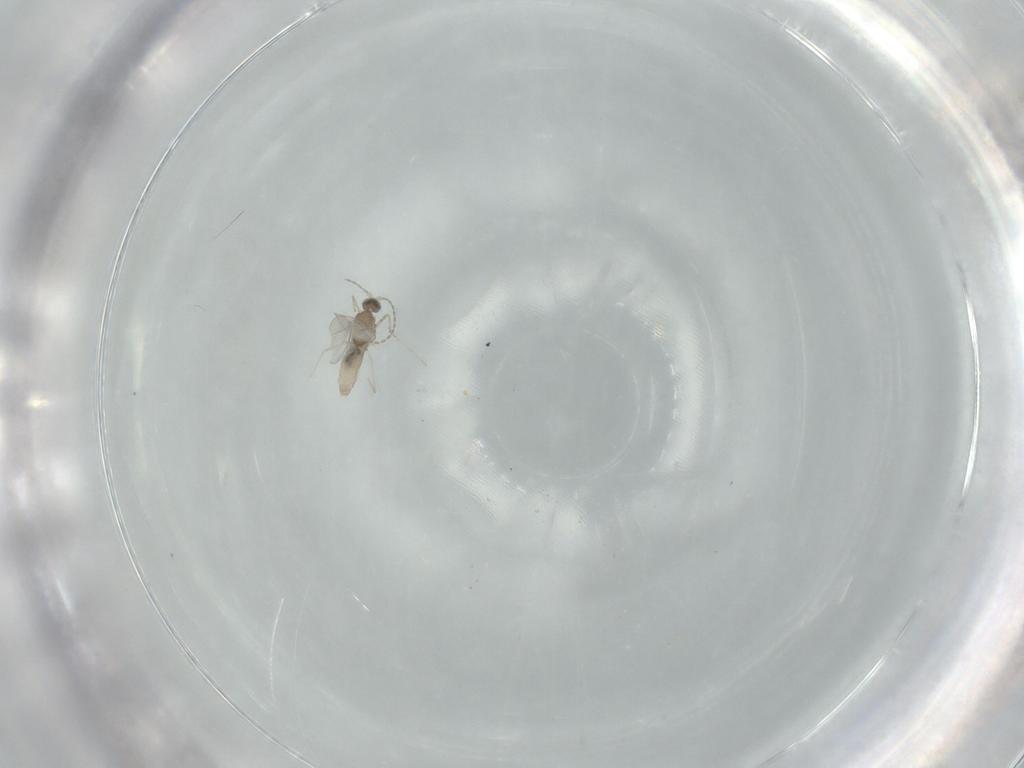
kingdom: Animalia
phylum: Arthropoda
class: Insecta
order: Diptera
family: Cecidomyiidae
